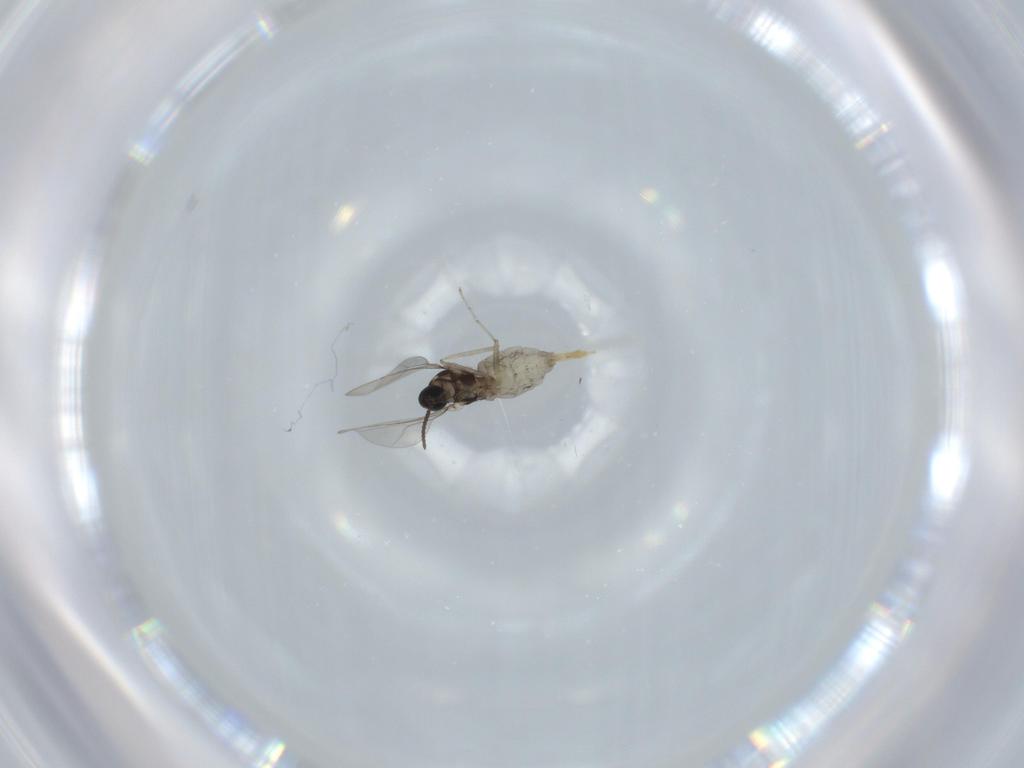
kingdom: Animalia
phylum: Arthropoda
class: Insecta
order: Diptera
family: Cecidomyiidae
